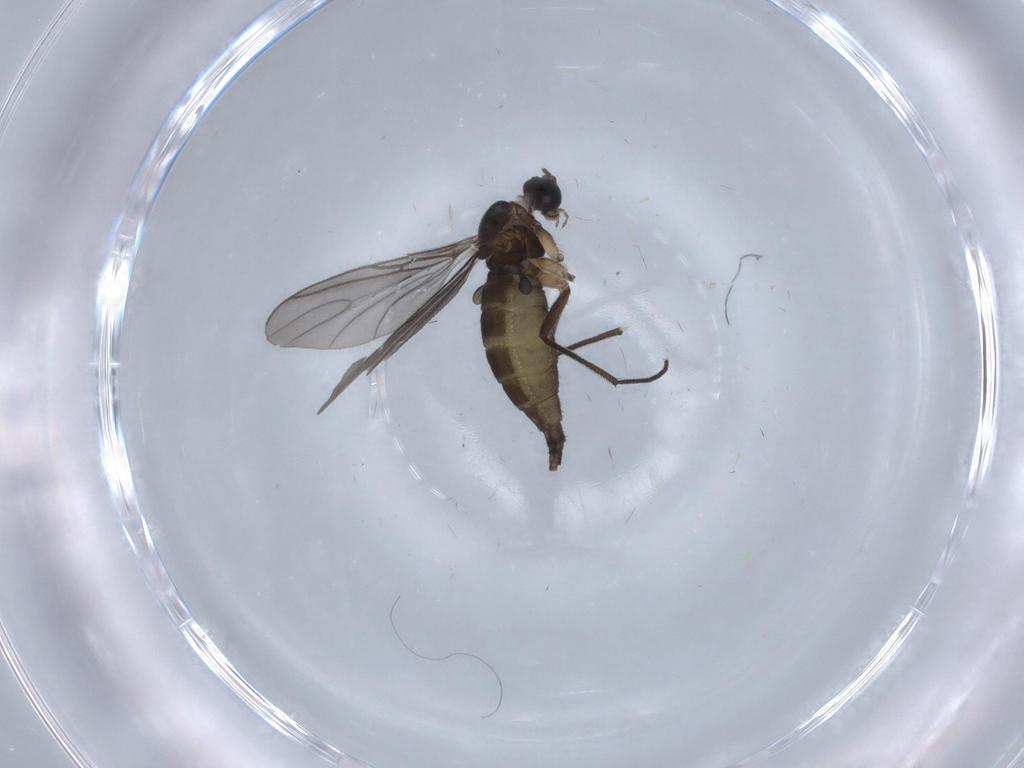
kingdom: Animalia
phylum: Arthropoda
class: Insecta
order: Diptera
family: Sciaridae
